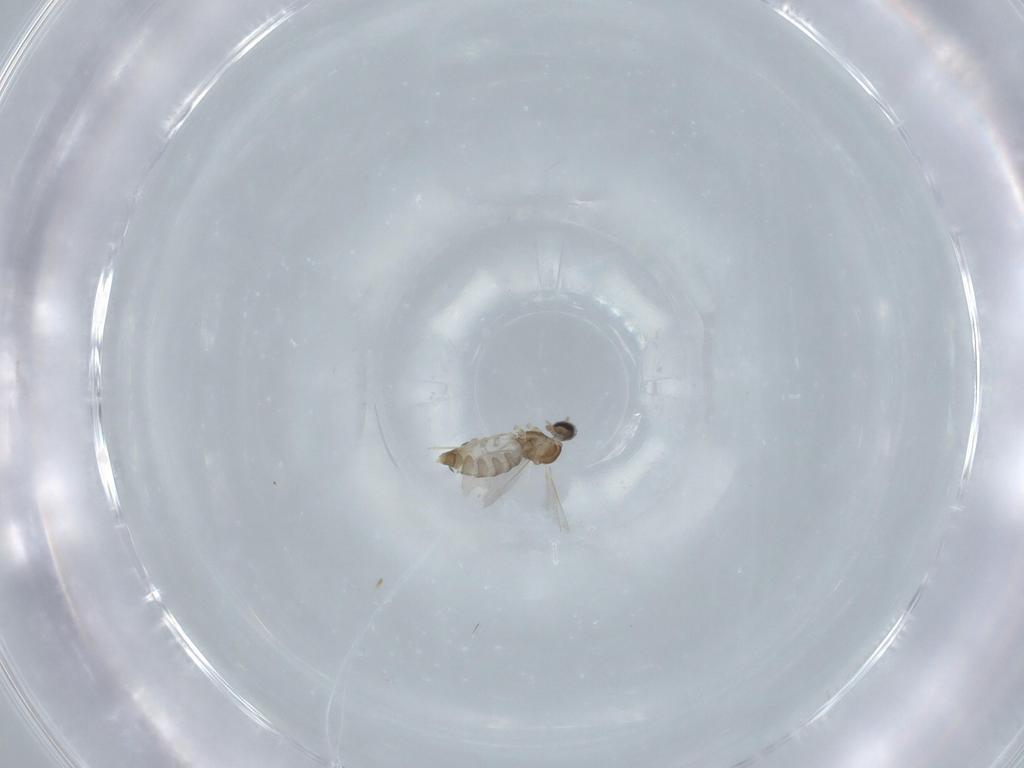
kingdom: Animalia
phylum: Arthropoda
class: Insecta
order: Diptera
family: Cecidomyiidae
